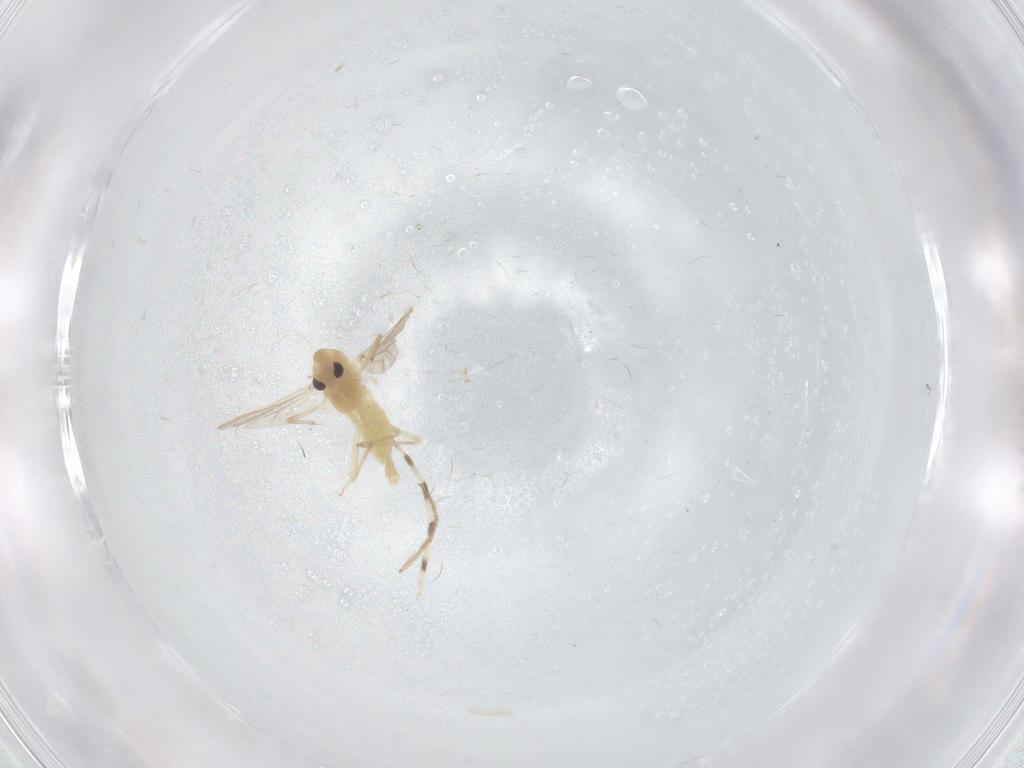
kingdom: Animalia
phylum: Arthropoda
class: Insecta
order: Diptera
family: Chironomidae
